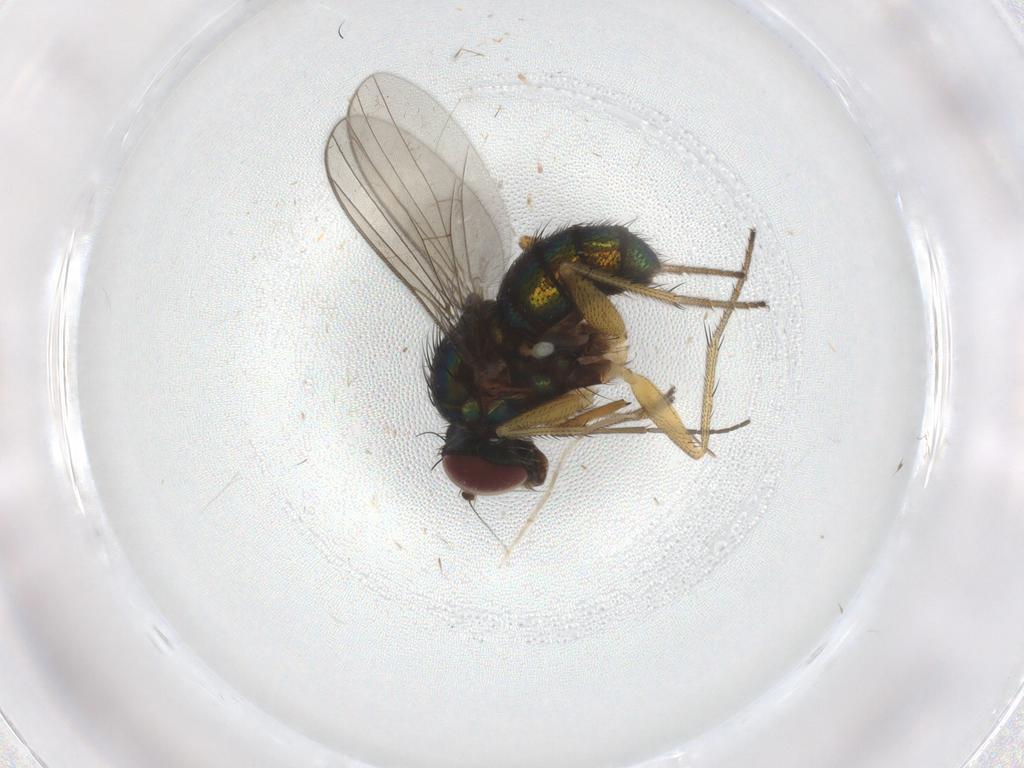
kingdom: Animalia
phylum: Arthropoda
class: Insecta
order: Diptera
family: Dolichopodidae
